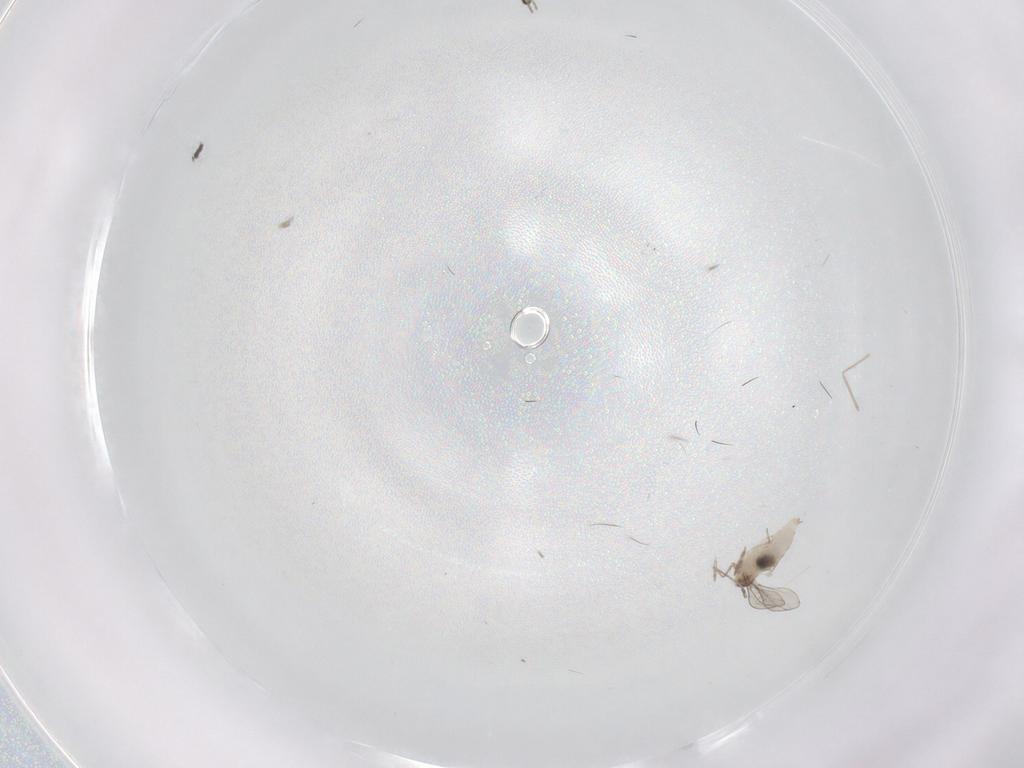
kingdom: Animalia
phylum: Arthropoda
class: Insecta
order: Diptera
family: Cecidomyiidae
